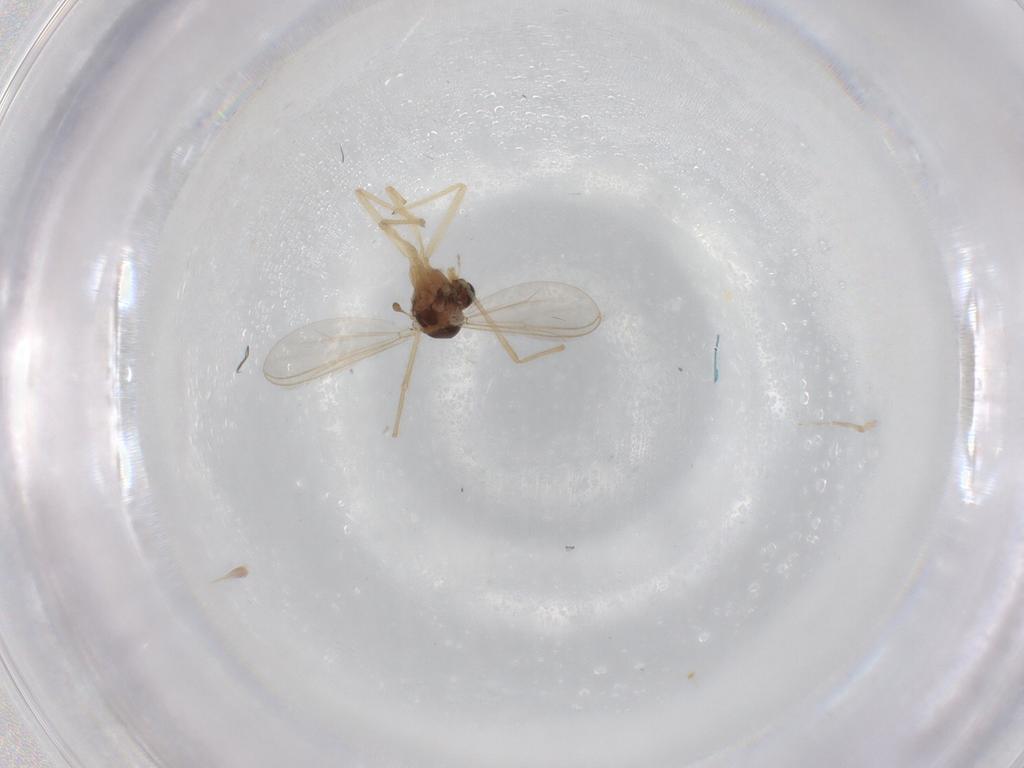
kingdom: Animalia
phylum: Arthropoda
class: Insecta
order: Diptera
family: Chironomidae
